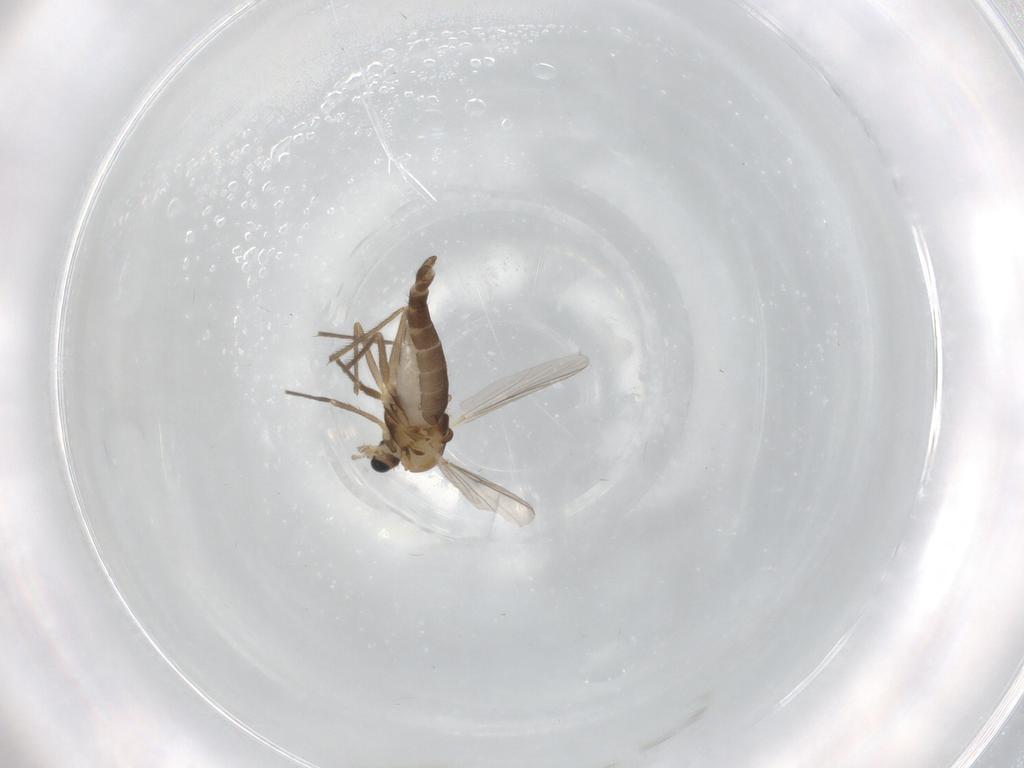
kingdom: Animalia
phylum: Arthropoda
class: Insecta
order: Diptera
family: Chironomidae
